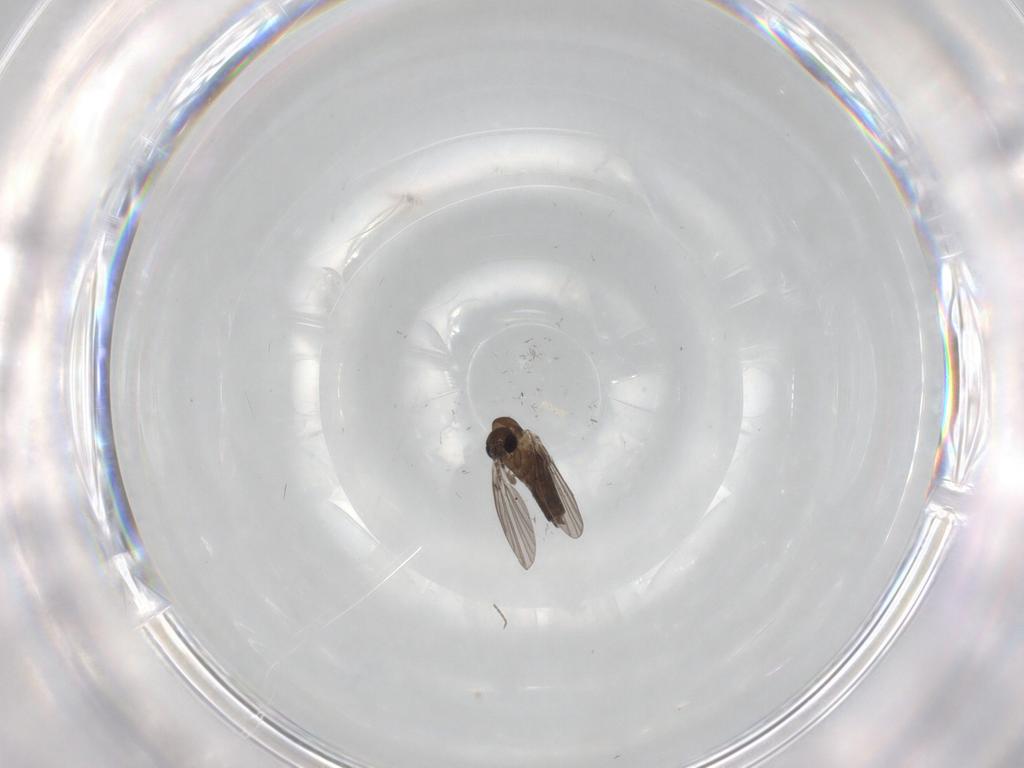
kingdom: Animalia
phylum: Arthropoda
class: Insecta
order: Diptera
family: Cecidomyiidae
